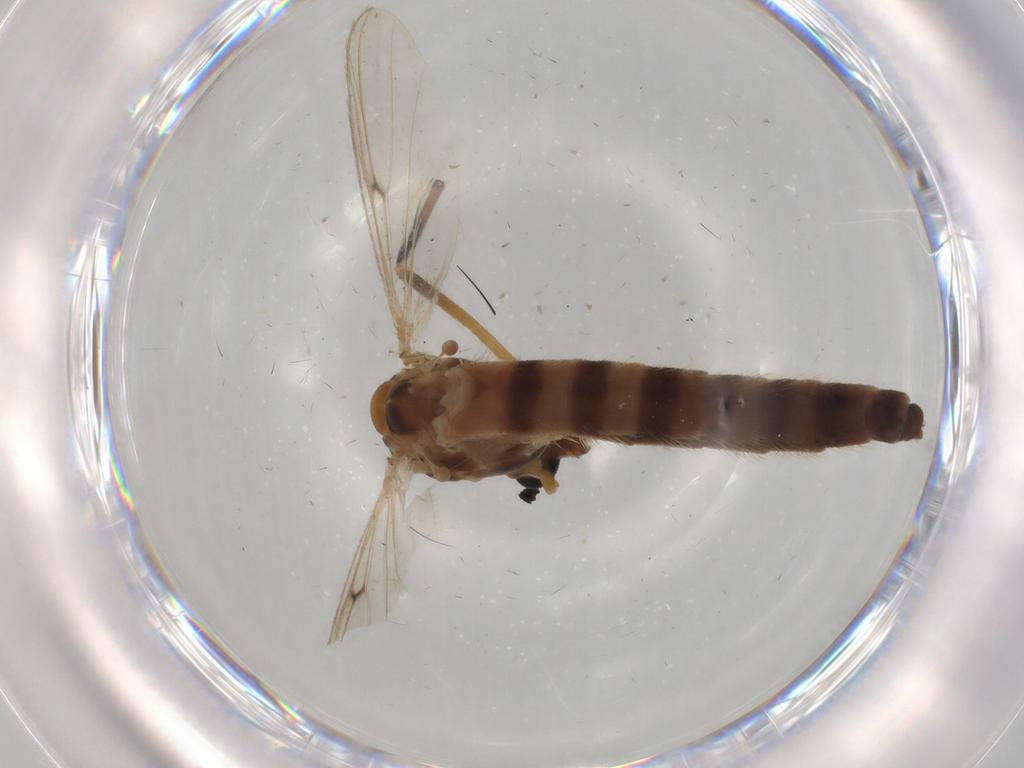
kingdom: Animalia
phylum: Arthropoda
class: Insecta
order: Diptera
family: Chironomidae
